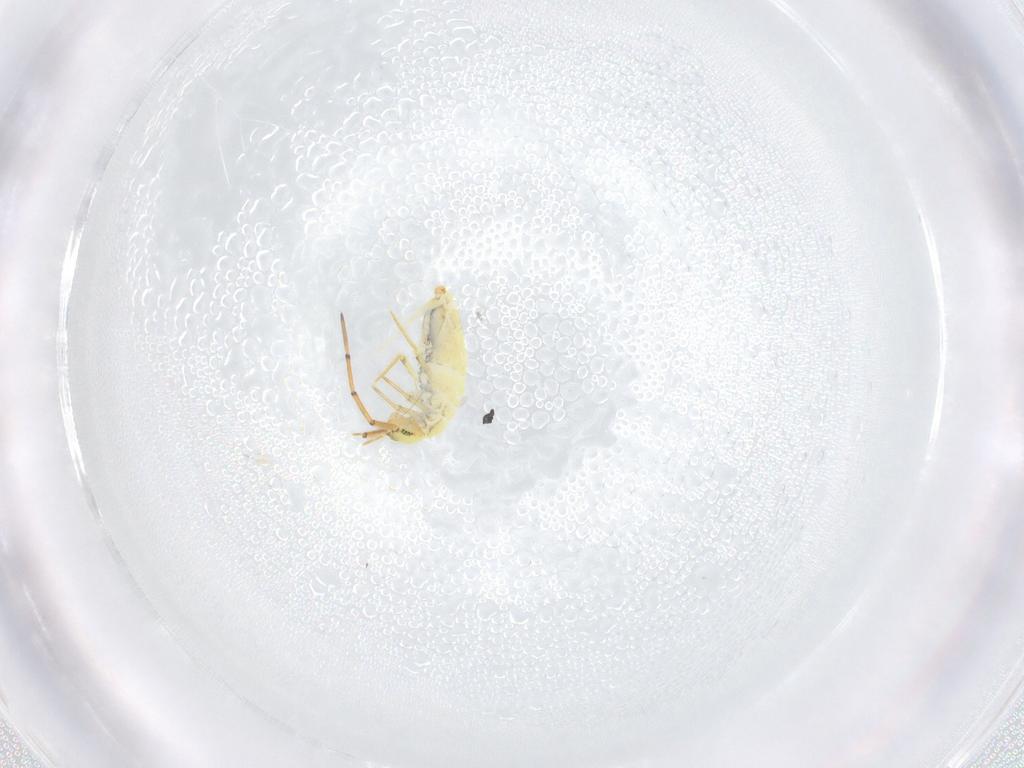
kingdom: Animalia
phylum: Arthropoda
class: Collembola
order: Entomobryomorpha
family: Paronellidae
